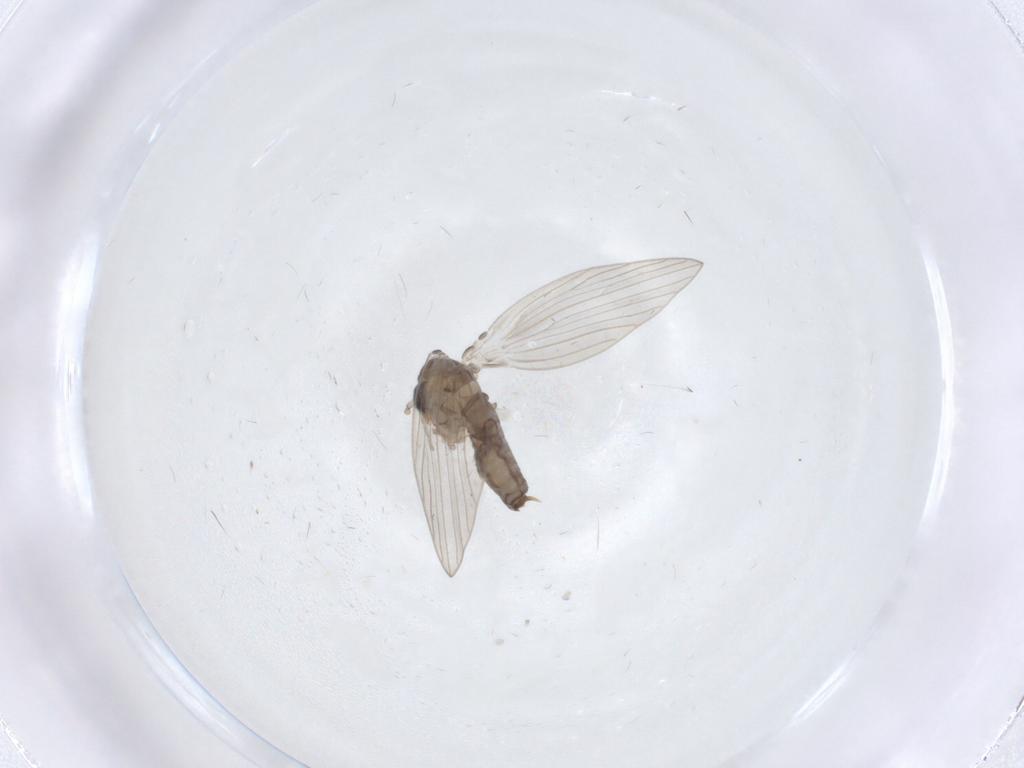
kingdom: Animalia
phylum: Arthropoda
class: Insecta
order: Diptera
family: Psychodidae
